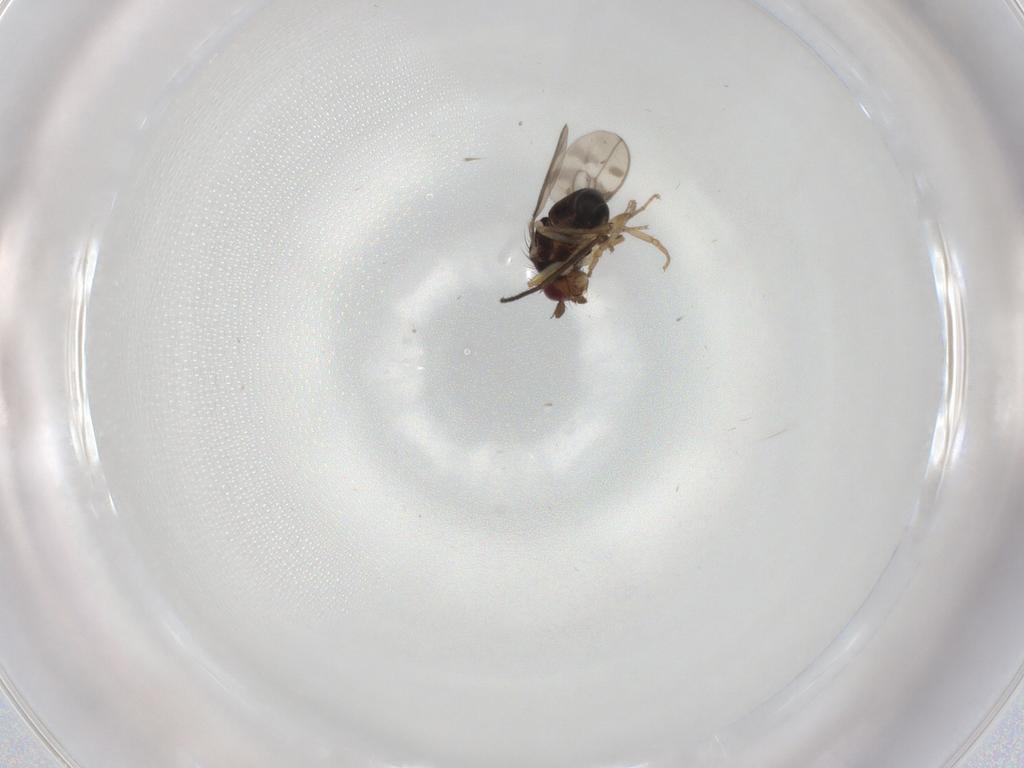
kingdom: Animalia
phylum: Arthropoda
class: Insecta
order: Diptera
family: Sphaeroceridae
